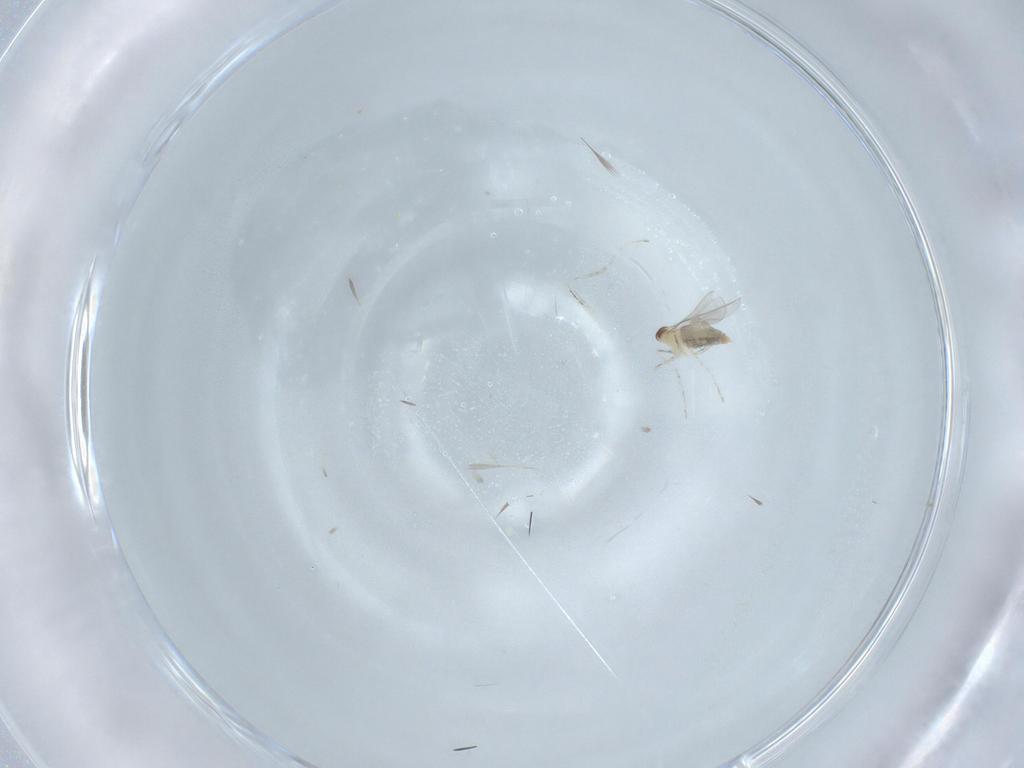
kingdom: Animalia
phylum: Arthropoda
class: Insecta
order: Diptera
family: Cecidomyiidae
